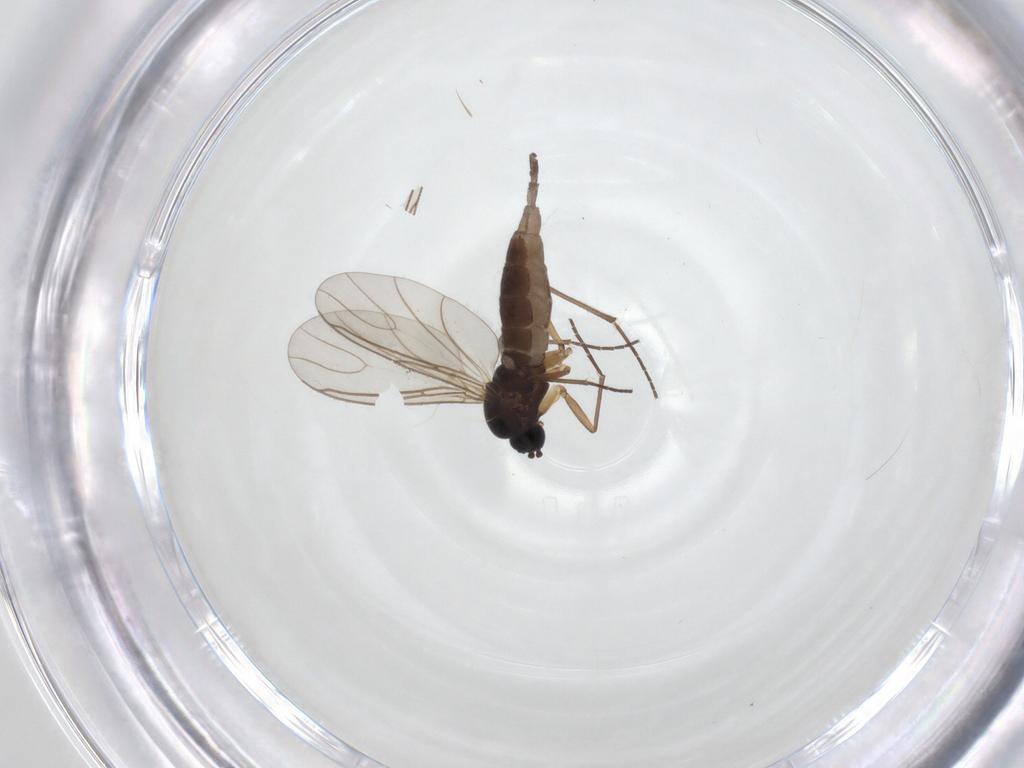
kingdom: Animalia
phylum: Arthropoda
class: Insecta
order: Diptera
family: Sciaridae
